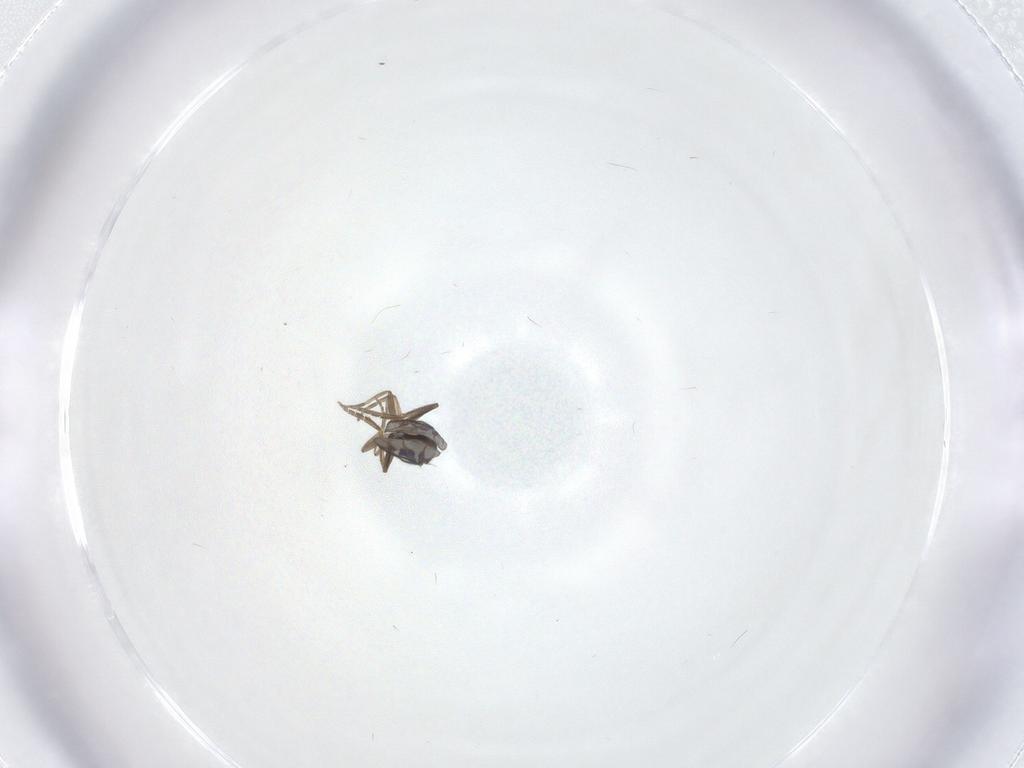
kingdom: Animalia
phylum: Arthropoda
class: Insecta
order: Diptera
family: Chironomidae
